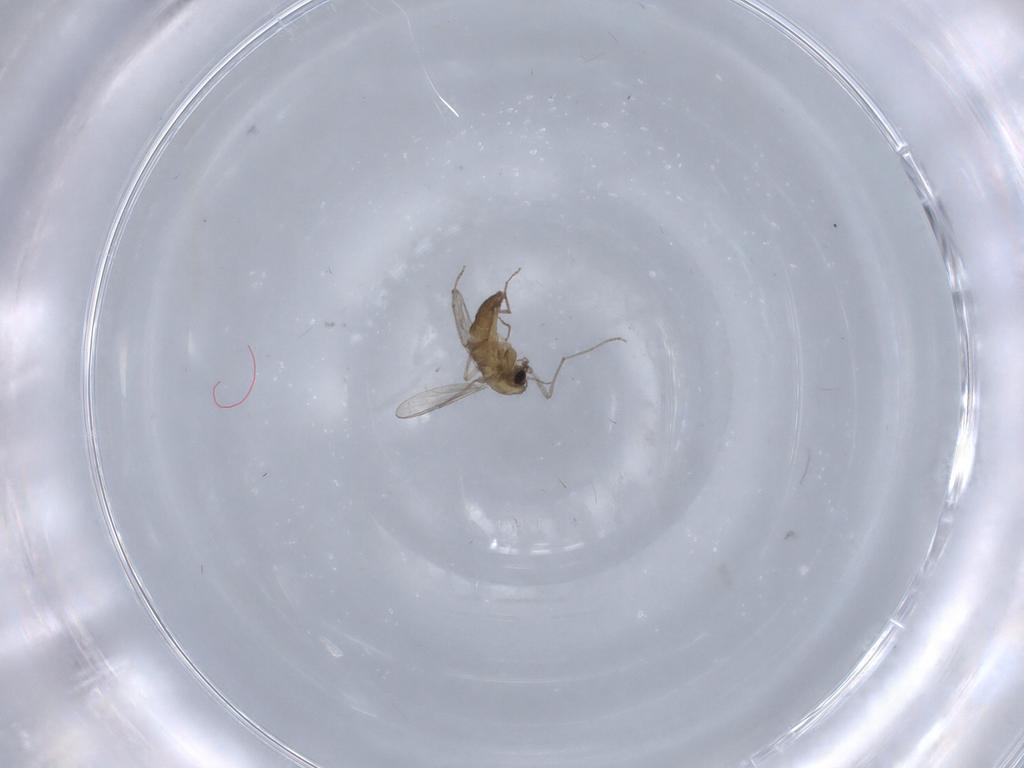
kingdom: Animalia
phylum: Arthropoda
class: Insecta
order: Diptera
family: Chironomidae
